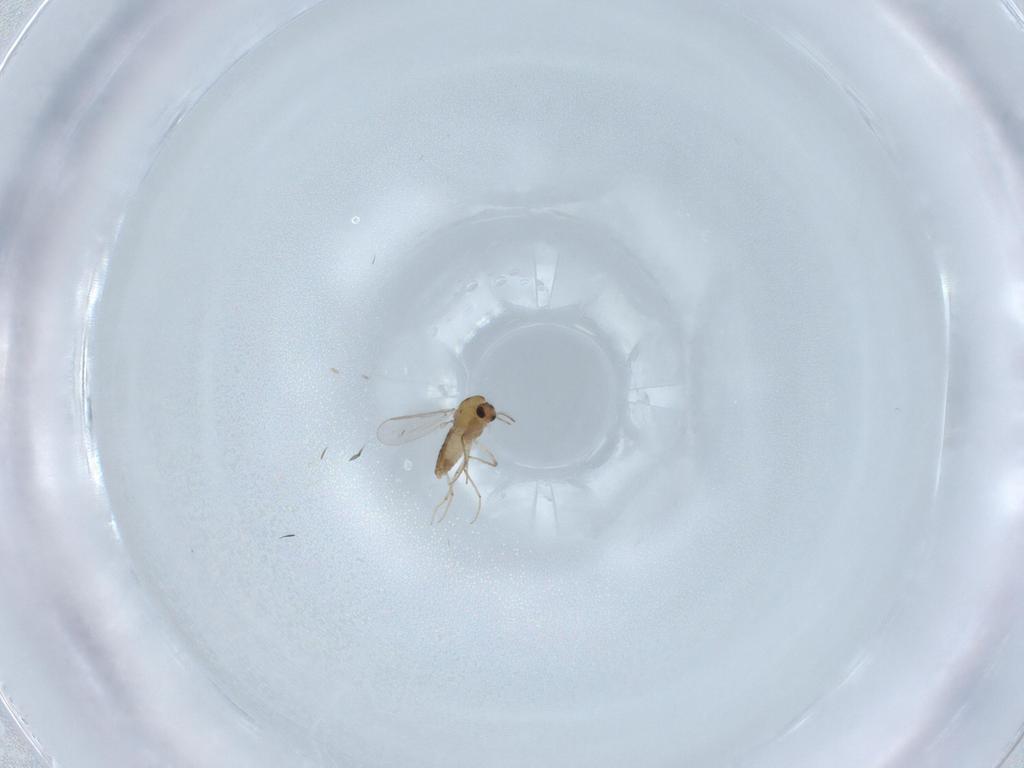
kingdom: Animalia
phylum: Arthropoda
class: Insecta
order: Diptera
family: Chironomidae
